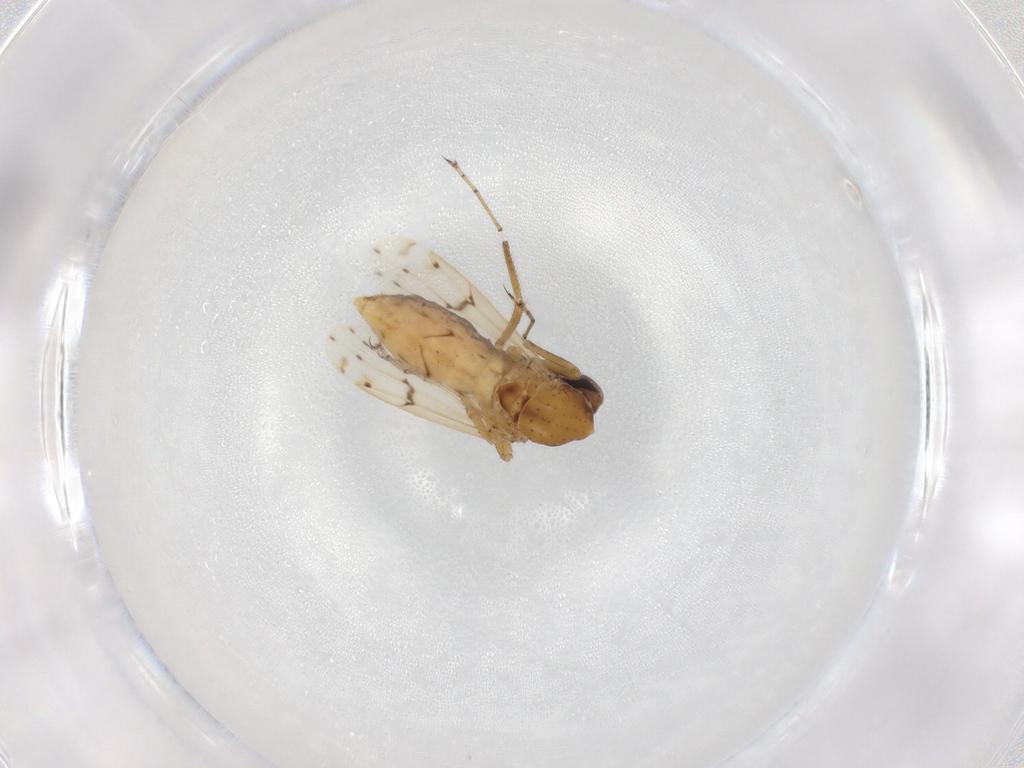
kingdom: Animalia
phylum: Arthropoda
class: Insecta
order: Diptera
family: Ceratopogonidae
